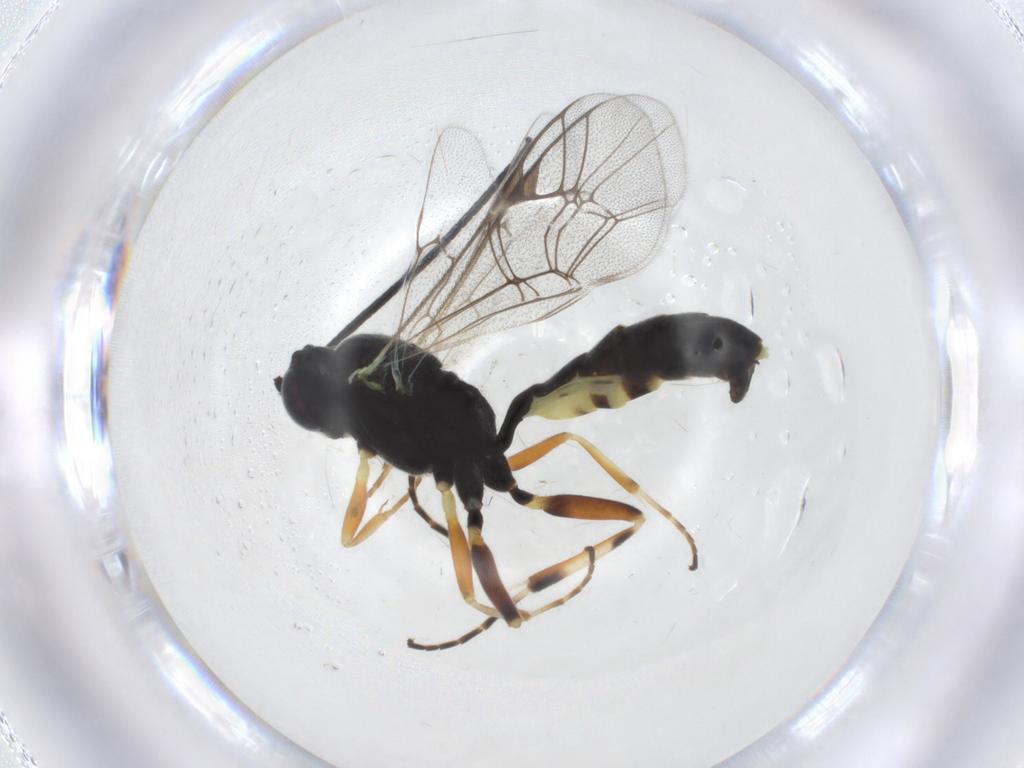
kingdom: Animalia
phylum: Arthropoda
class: Insecta
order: Hymenoptera
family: Ichneumonidae
